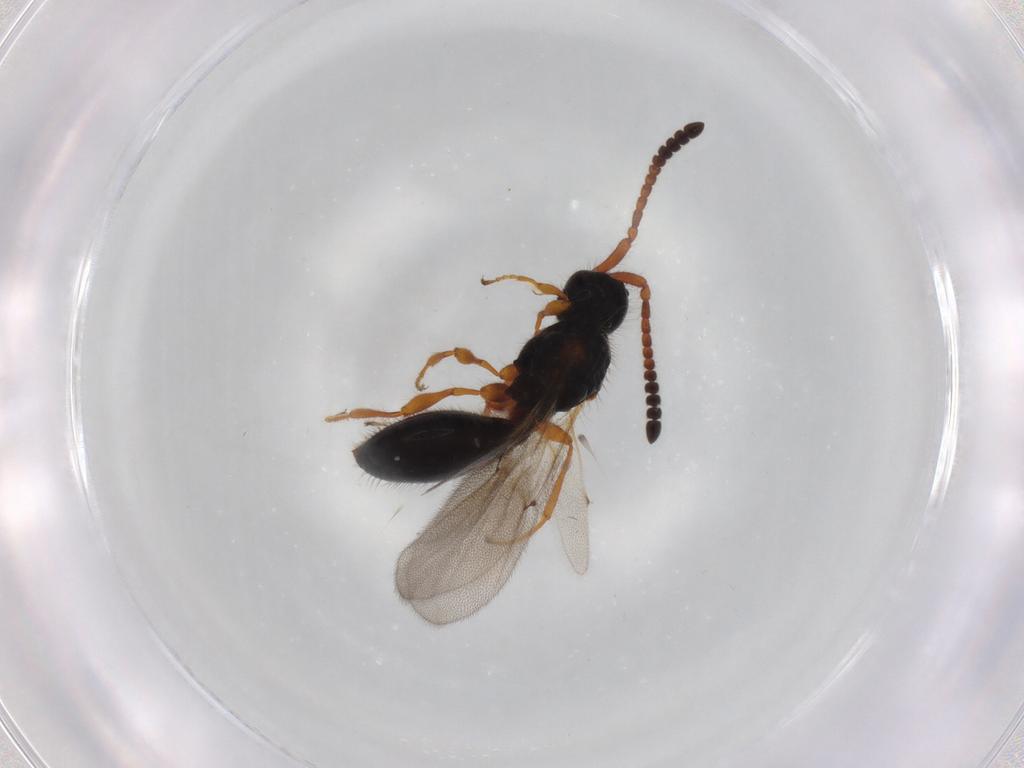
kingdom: Animalia
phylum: Arthropoda
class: Insecta
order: Hymenoptera
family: Diapriidae
